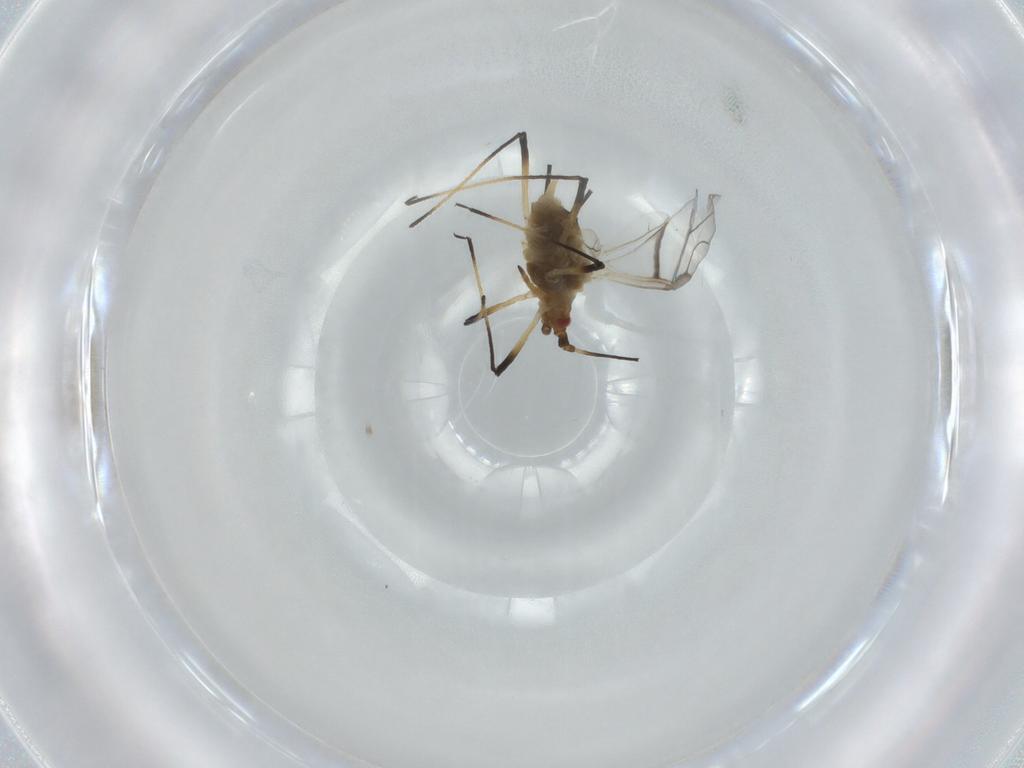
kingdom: Animalia
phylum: Arthropoda
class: Insecta
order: Hemiptera
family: Aphididae
